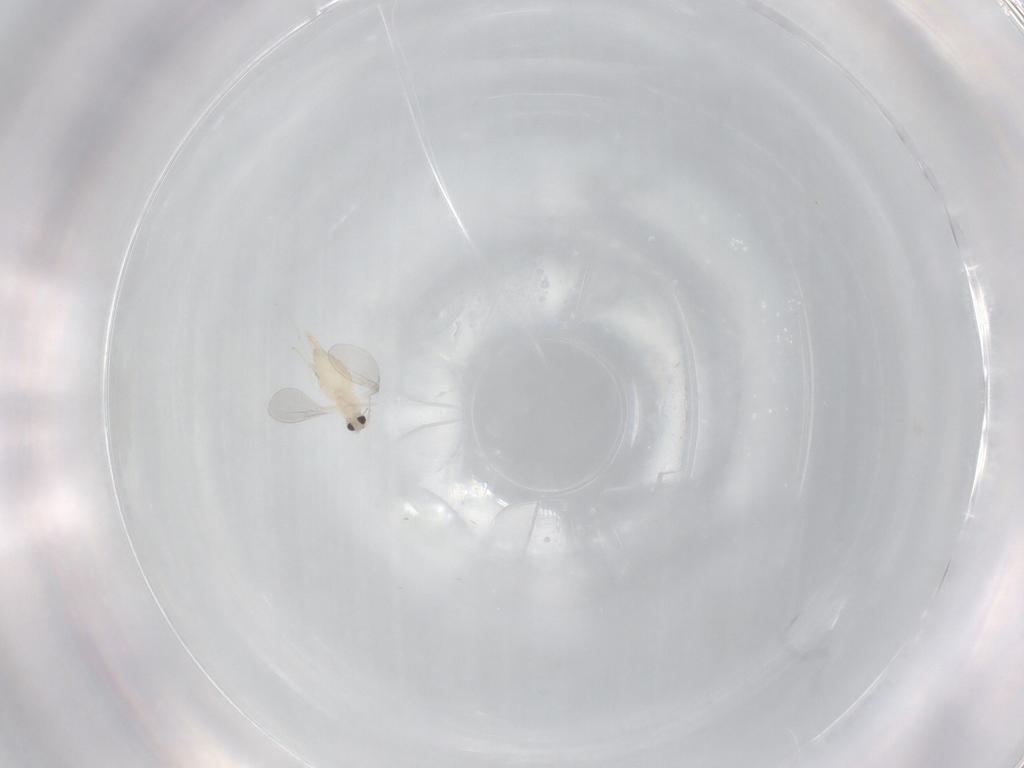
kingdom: Animalia
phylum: Arthropoda
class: Insecta
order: Diptera
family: Cecidomyiidae
